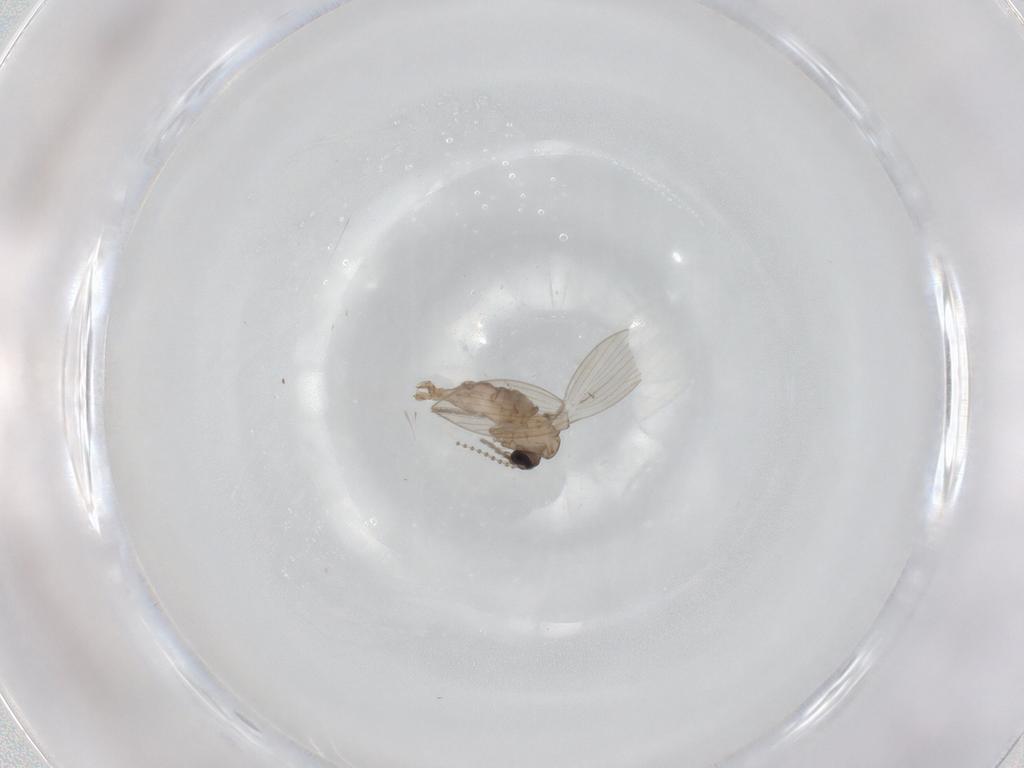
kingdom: Animalia
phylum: Arthropoda
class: Insecta
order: Diptera
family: Psychodidae
